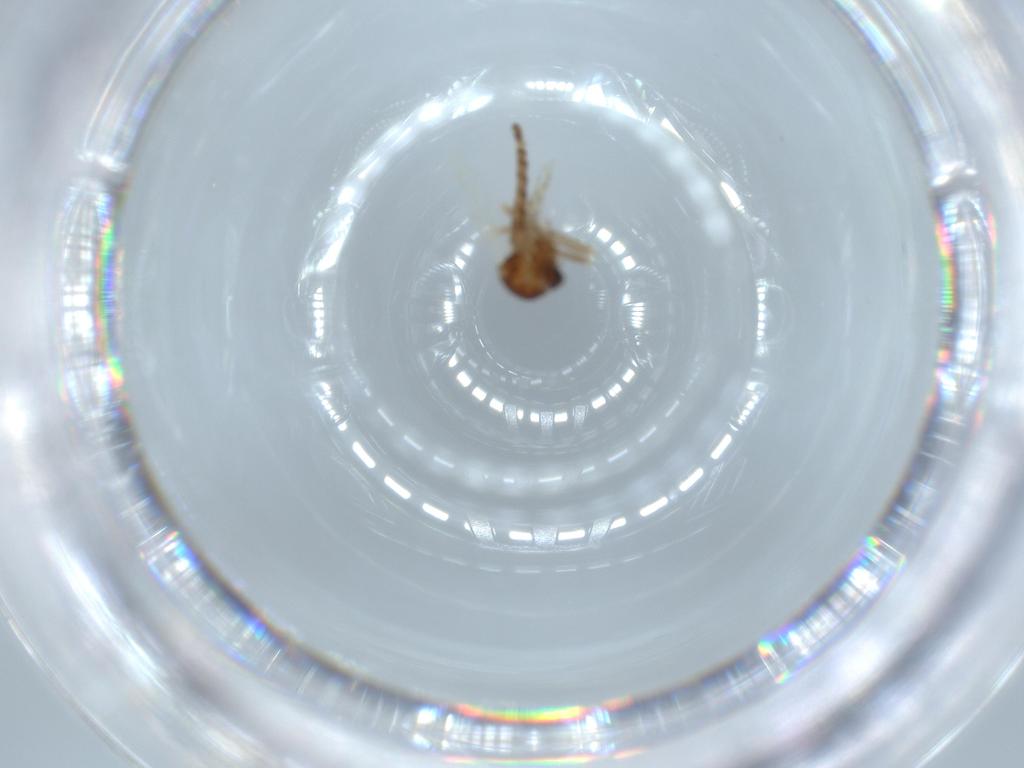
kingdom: Animalia
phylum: Arthropoda
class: Insecta
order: Diptera
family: Ceratopogonidae
